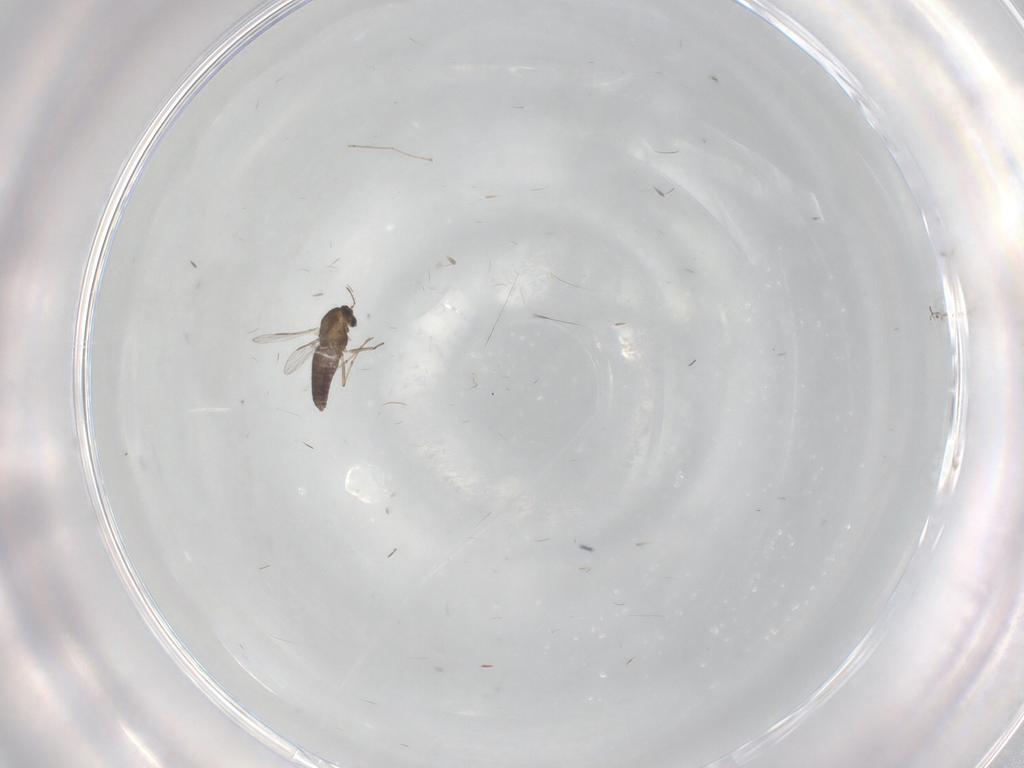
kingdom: Animalia
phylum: Arthropoda
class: Insecta
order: Diptera
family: Chironomidae
